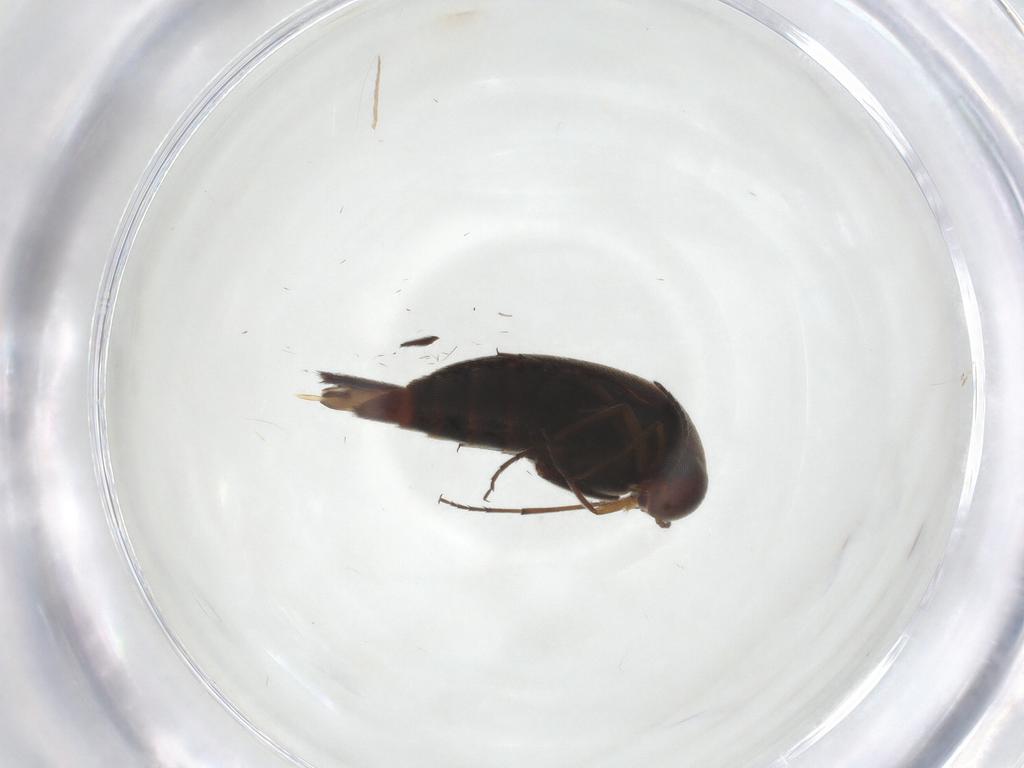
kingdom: Animalia
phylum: Arthropoda
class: Insecta
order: Coleoptera
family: Mordellidae
